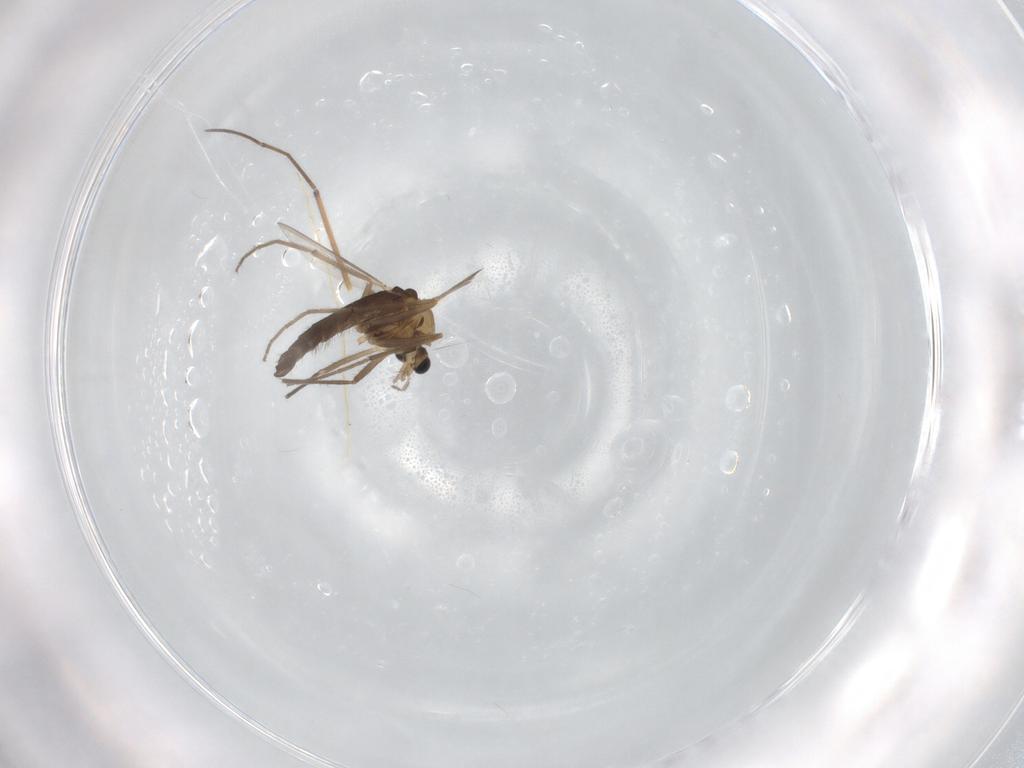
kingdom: Animalia
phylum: Arthropoda
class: Insecta
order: Diptera
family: Chironomidae
